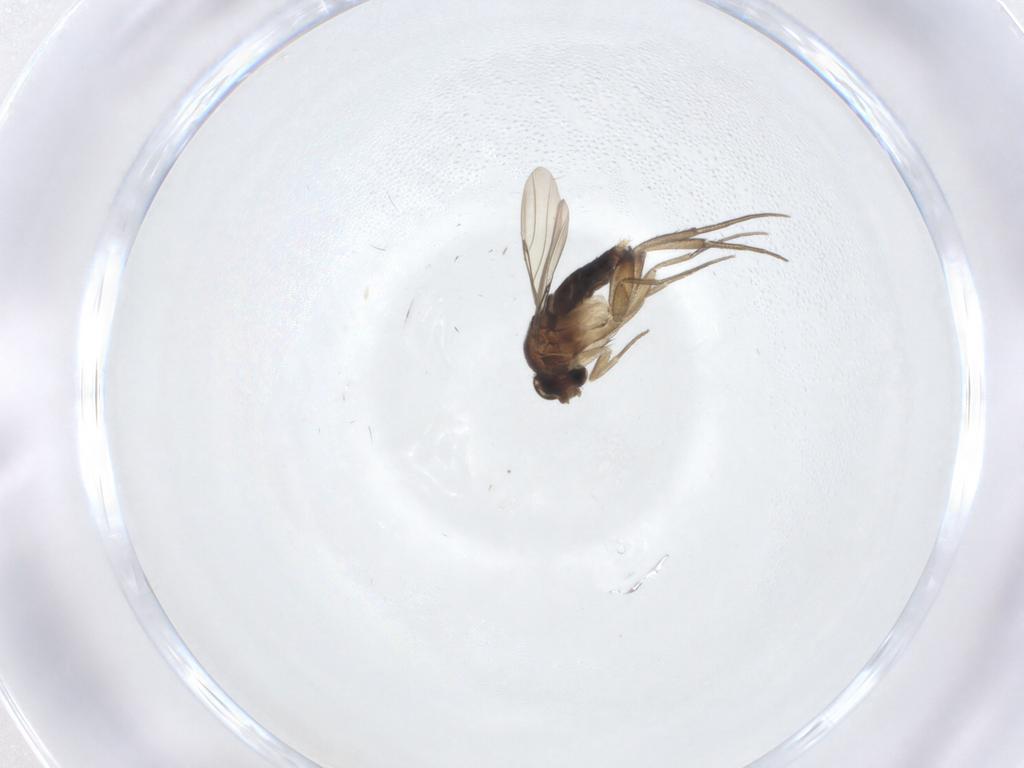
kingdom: Animalia
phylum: Arthropoda
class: Insecta
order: Diptera
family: Phoridae
